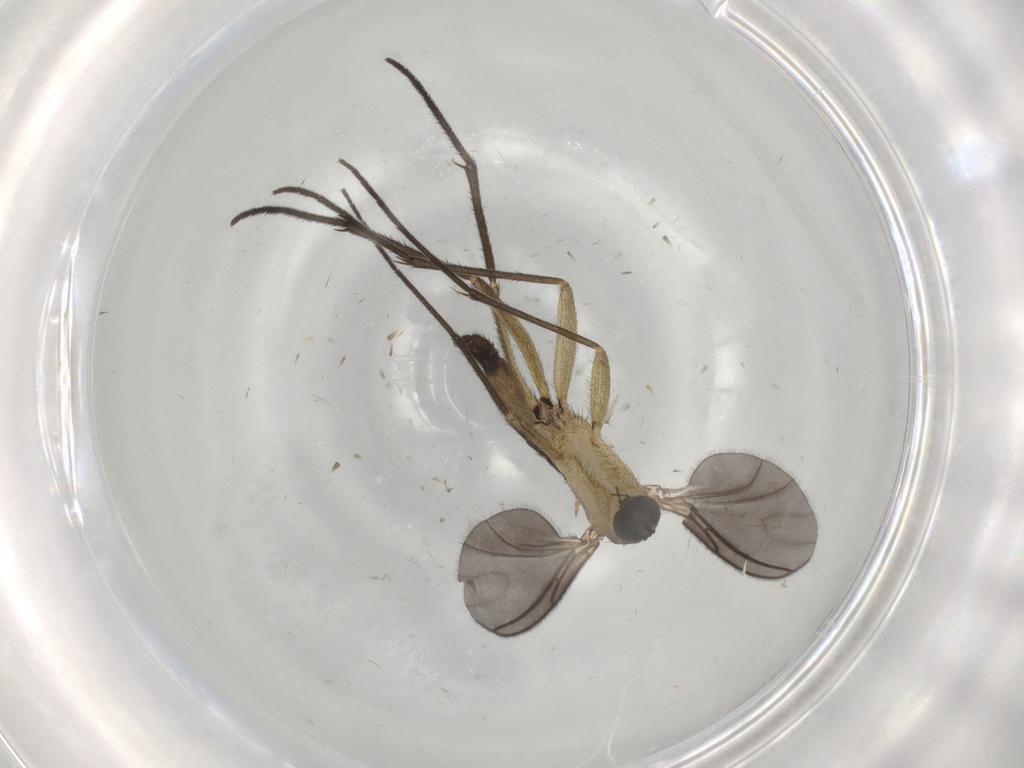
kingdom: Animalia
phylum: Arthropoda
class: Insecta
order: Diptera
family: Sciaridae
